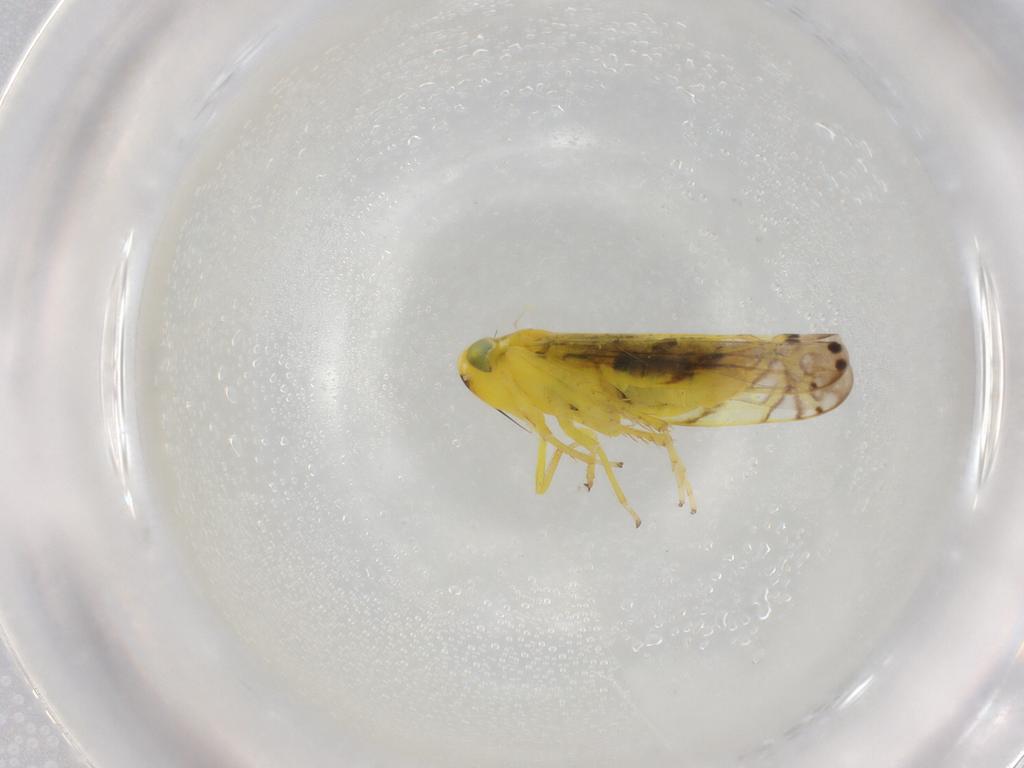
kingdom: Animalia
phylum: Arthropoda
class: Insecta
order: Hemiptera
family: Cicadellidae
